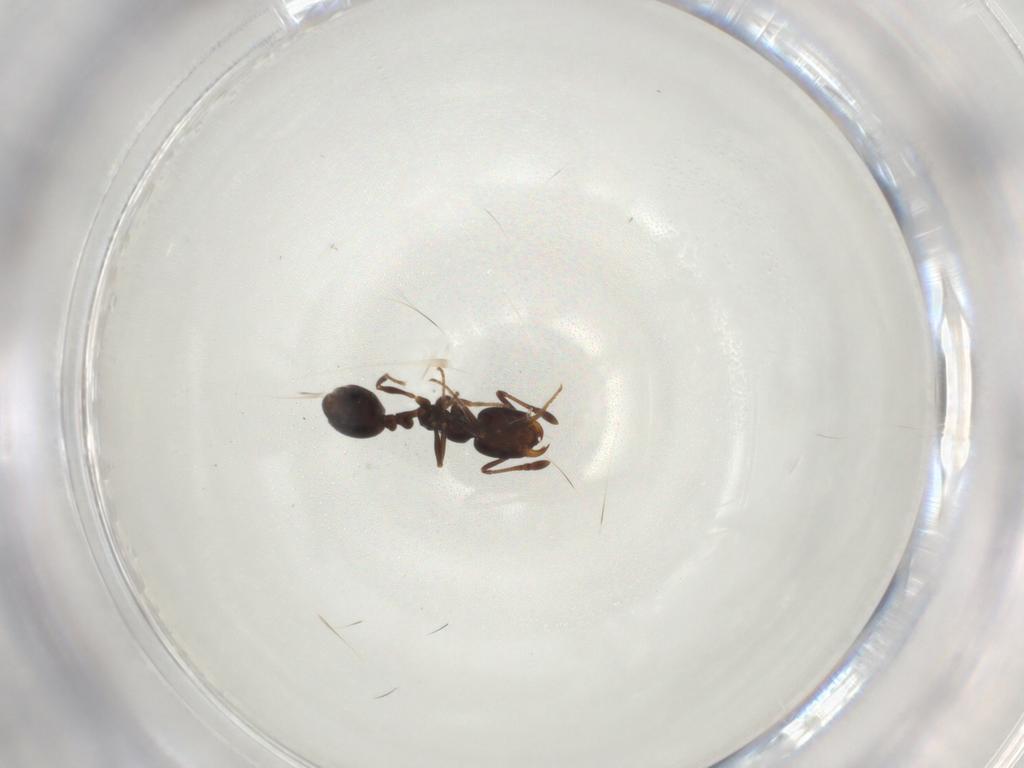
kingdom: Animalia
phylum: Arthropoda
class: Insecta
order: Hymenoptera
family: Formicidae
